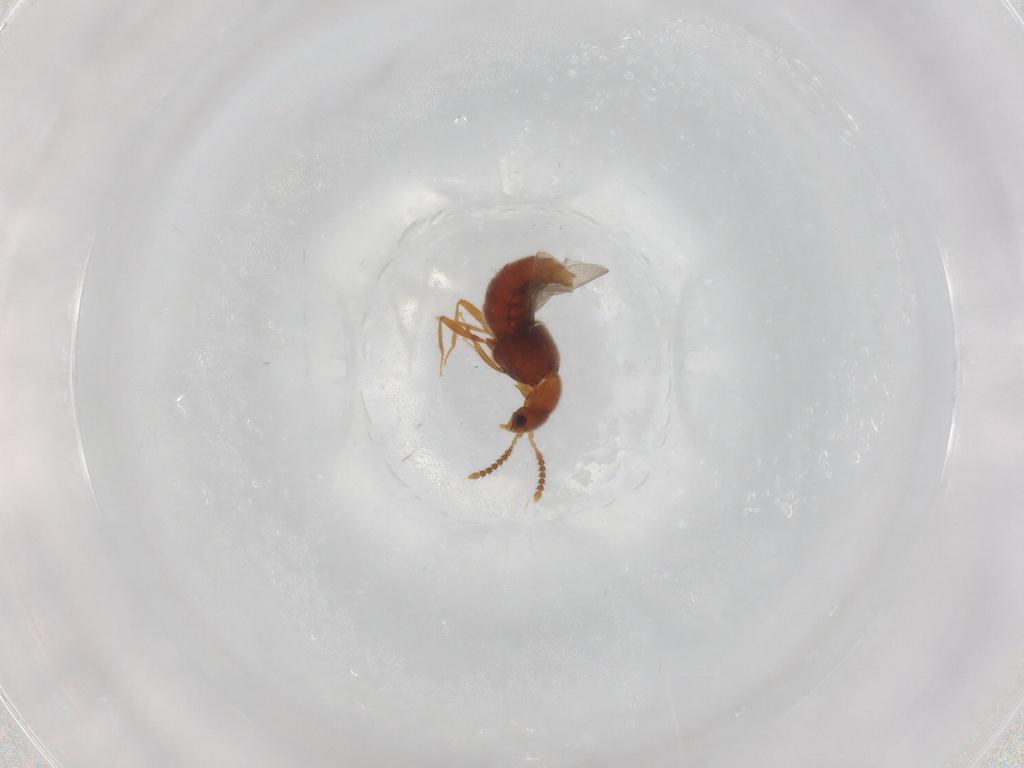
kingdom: Animalia
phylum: Arthropoda
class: Insecta
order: Coleoptera
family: Staphylinidae
